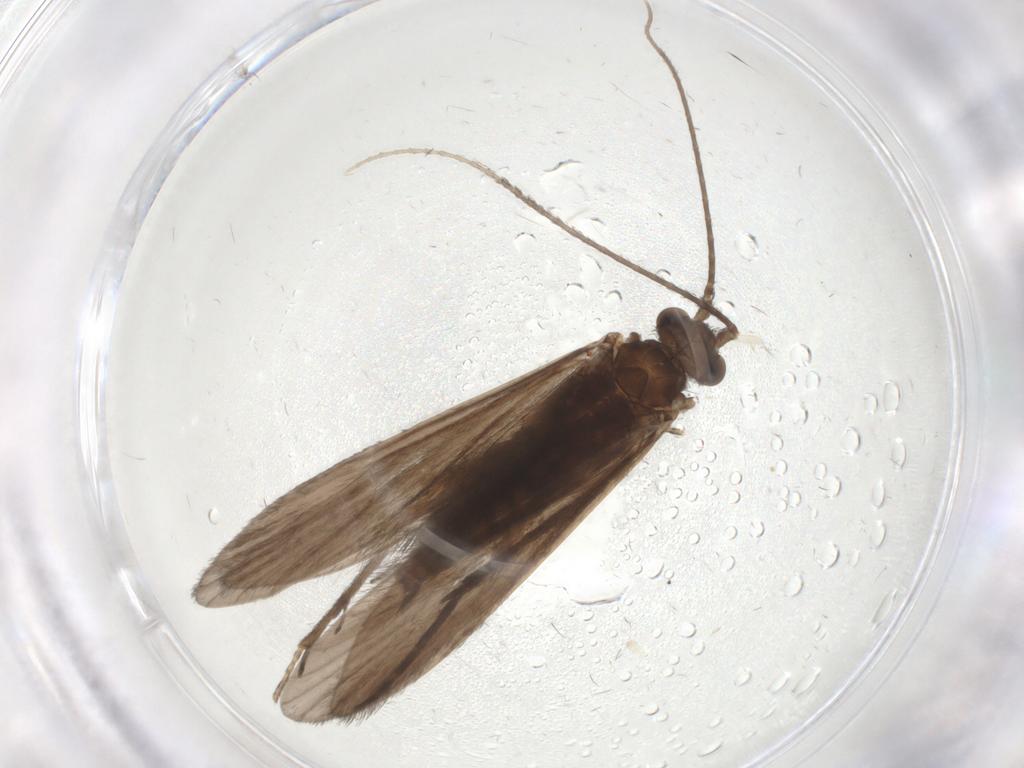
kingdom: Animalia
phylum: Arthropoda
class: Insecta
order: Trichoptera
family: Xiphocentronidae
